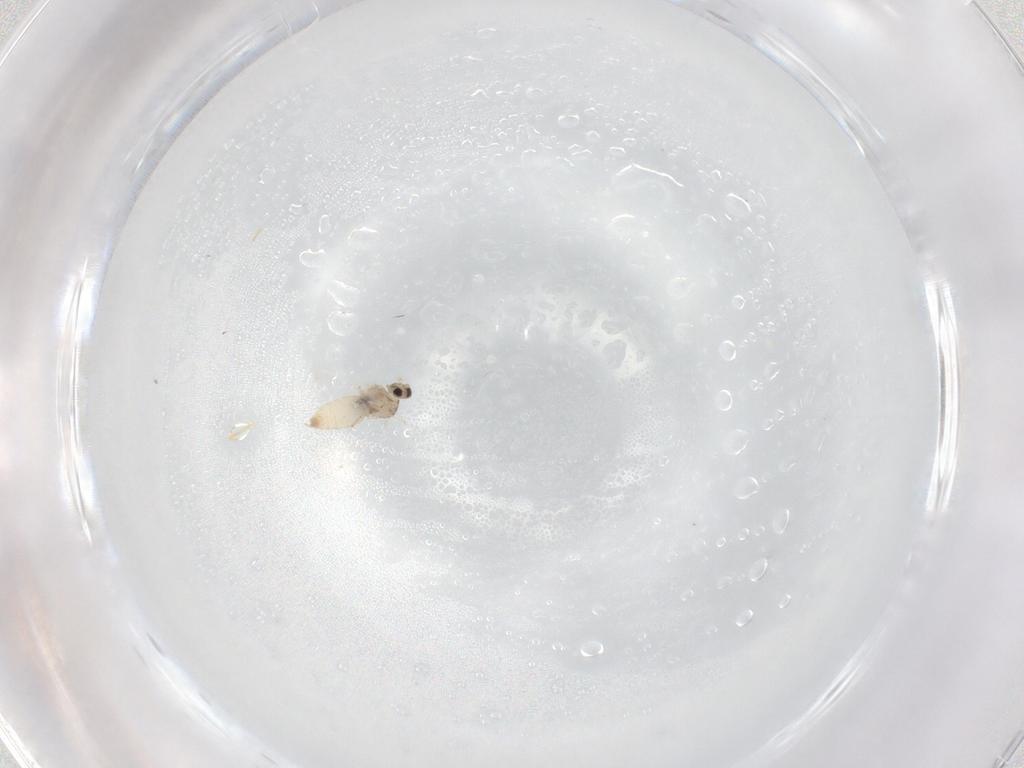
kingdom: Animalia
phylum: Arthropoda
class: Insecta
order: Diptera
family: Cecidomyiidae
